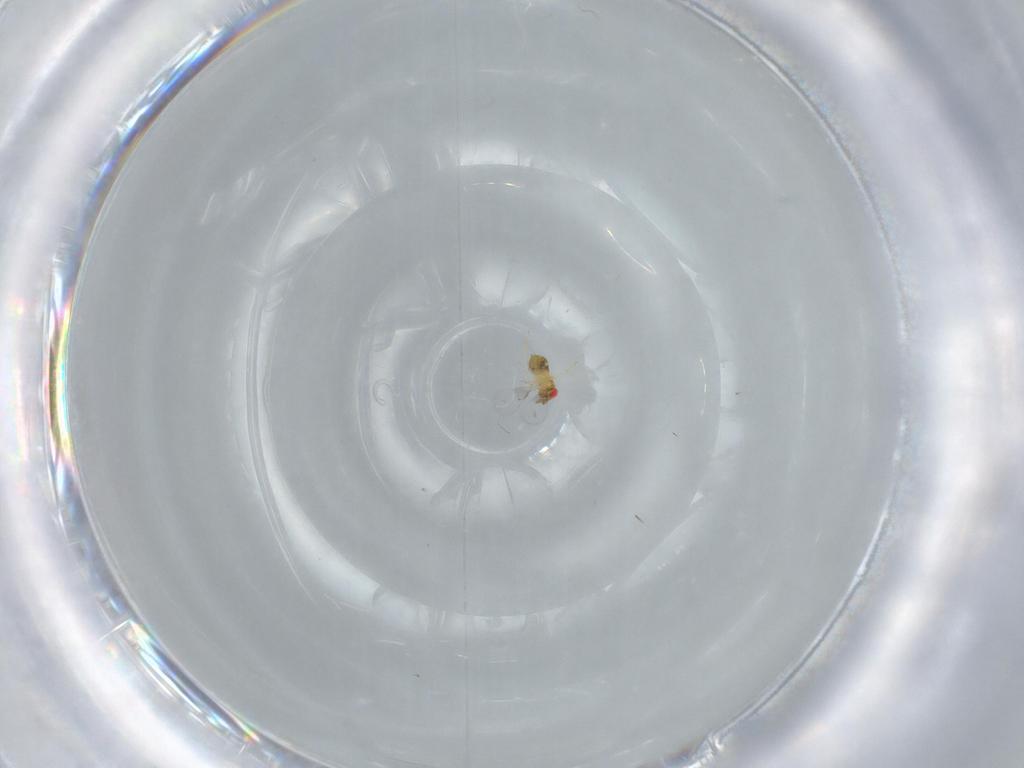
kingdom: Animalia
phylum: Arthropoda
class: Insecta
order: Hymenoptera
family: Trichogrammatidae
